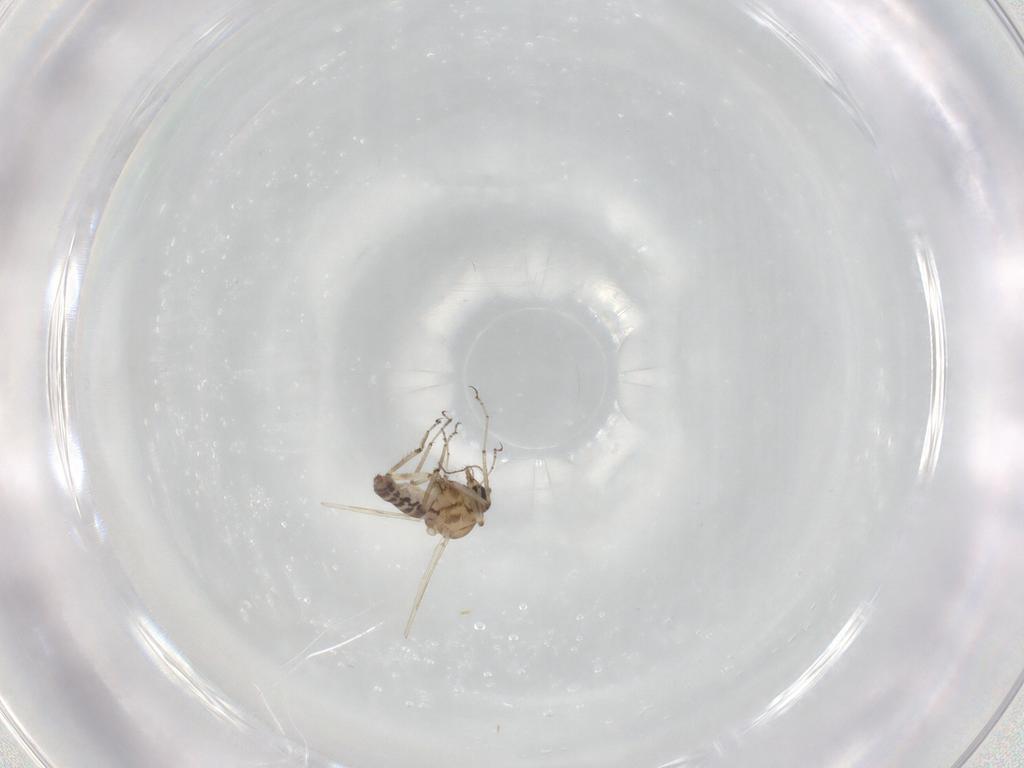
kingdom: Animalia
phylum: Arthropoda
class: Insecta
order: Diptera
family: Ceratopogonidae
